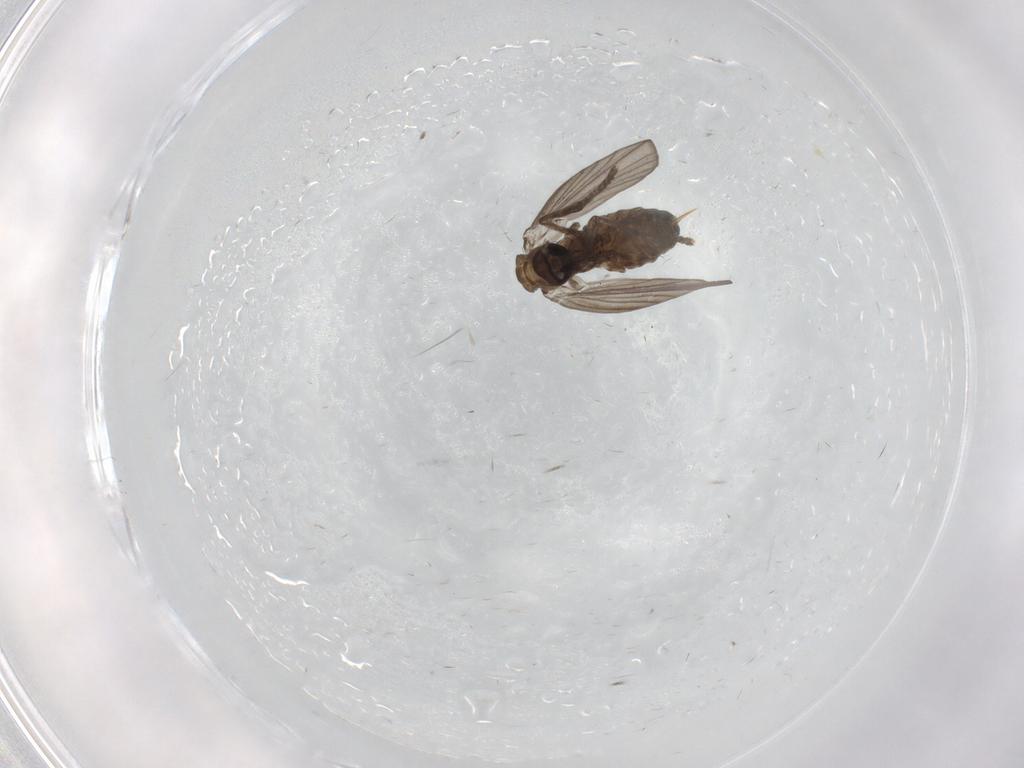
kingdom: Animalia
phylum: Arthropoda
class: Insecta
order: Diptera
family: Psychodidae
